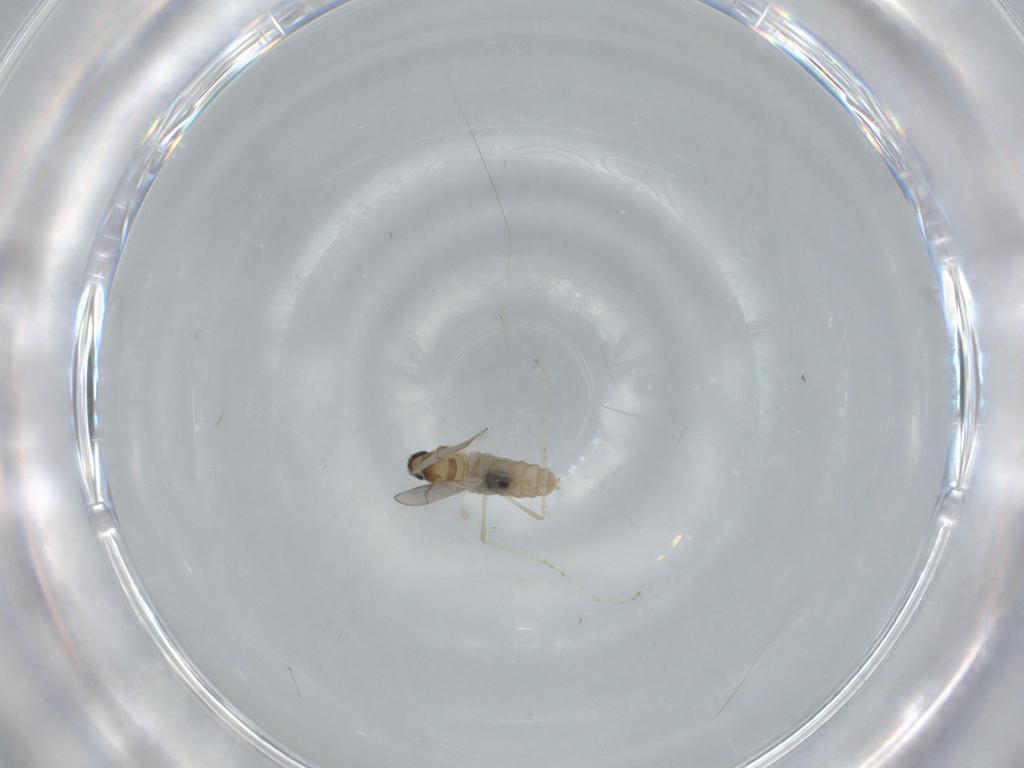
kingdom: Animalia
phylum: Arthropoda
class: Insecta
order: Diptera
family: Cecidomyiidae
